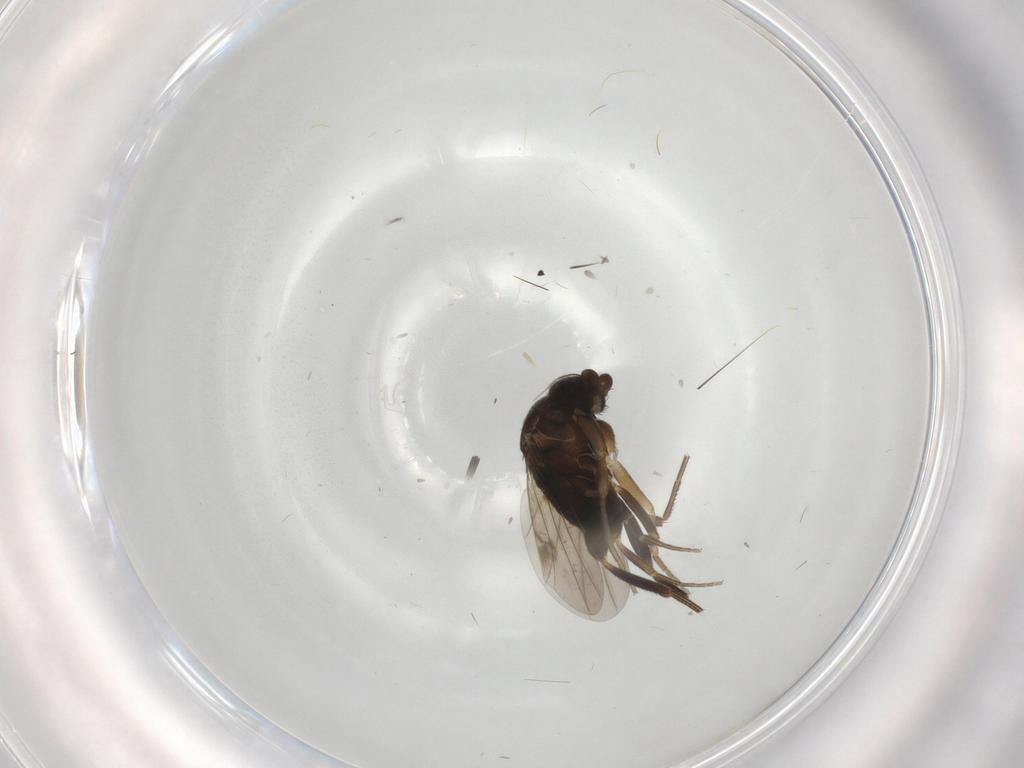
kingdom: Animalia
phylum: Arthropoda
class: Insecta
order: Diptera
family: Phoridae
